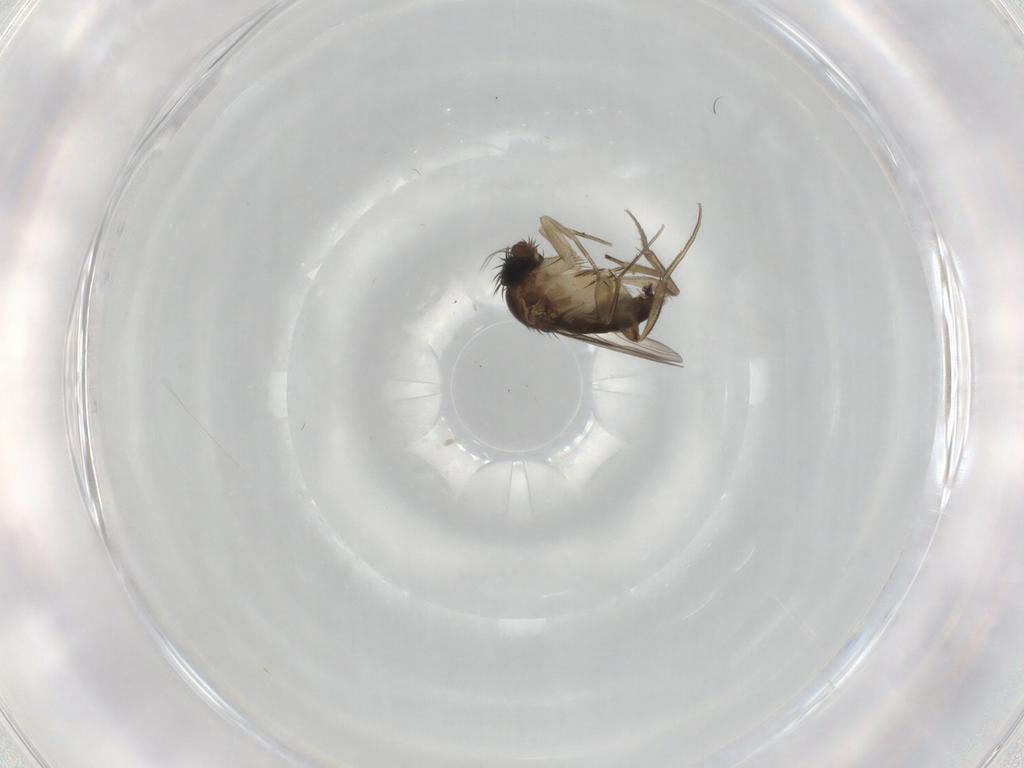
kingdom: Animalia
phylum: Arthropoda
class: Insecta
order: Diptera
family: Phoridae
